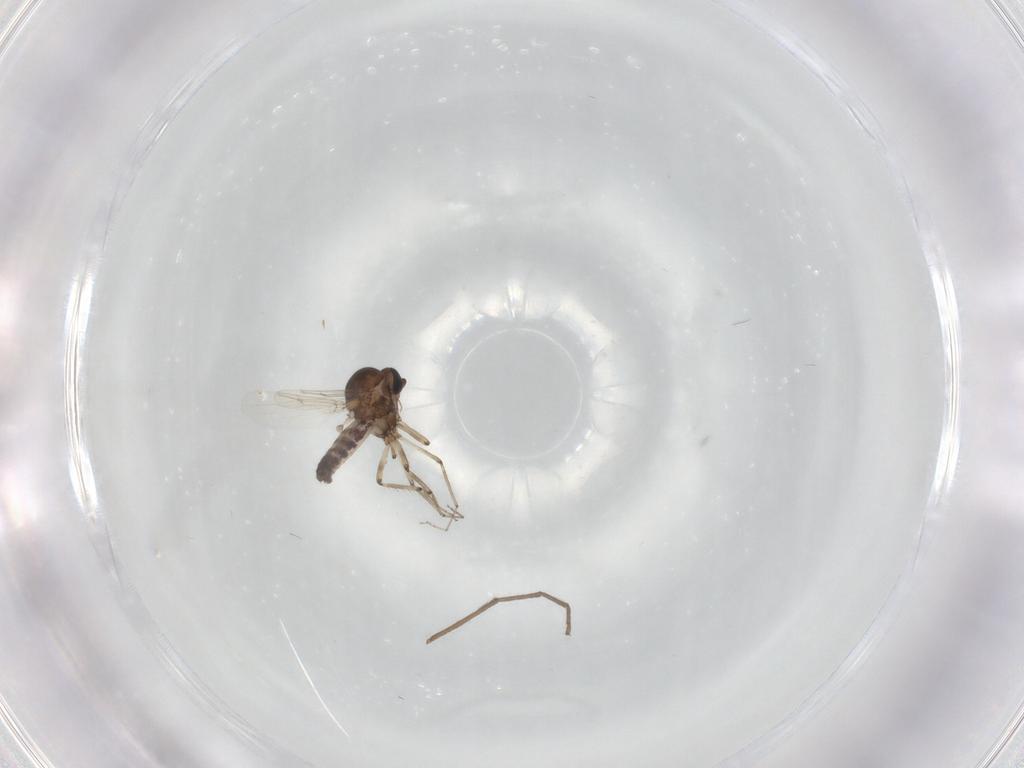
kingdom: Animalia
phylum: Arthropoda
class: Insecta
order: Diptera
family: Ceratopogonidae
